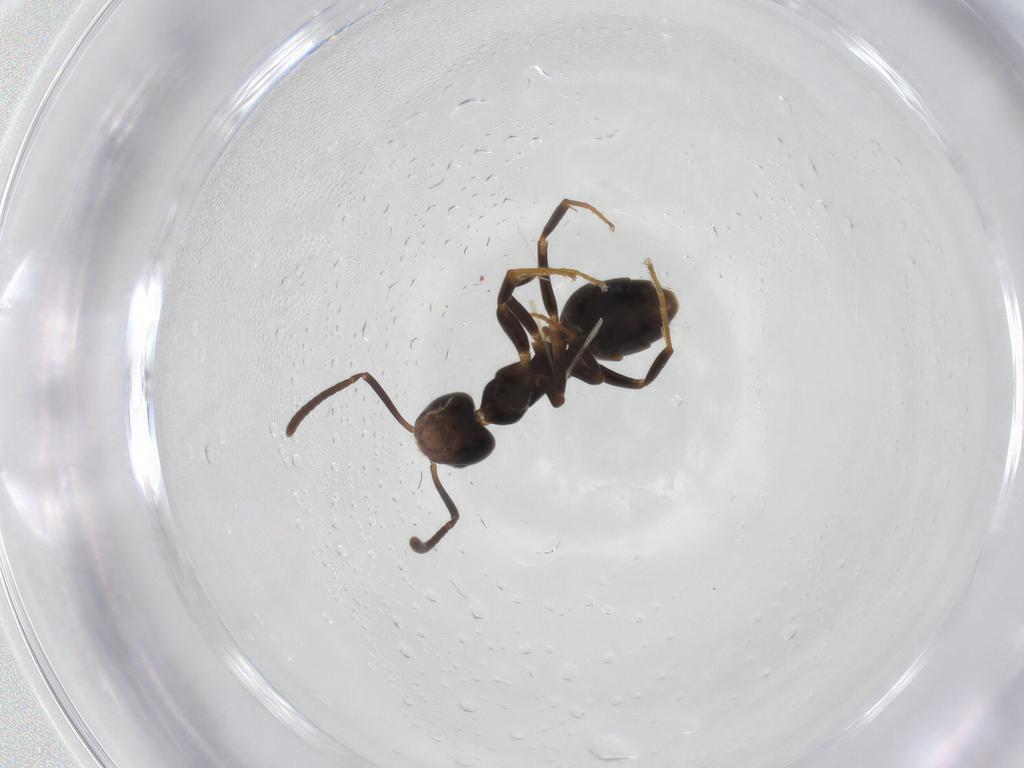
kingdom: Animalia
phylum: Arthropoda
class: Insecta
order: Hymenoptera
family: Formicidae
